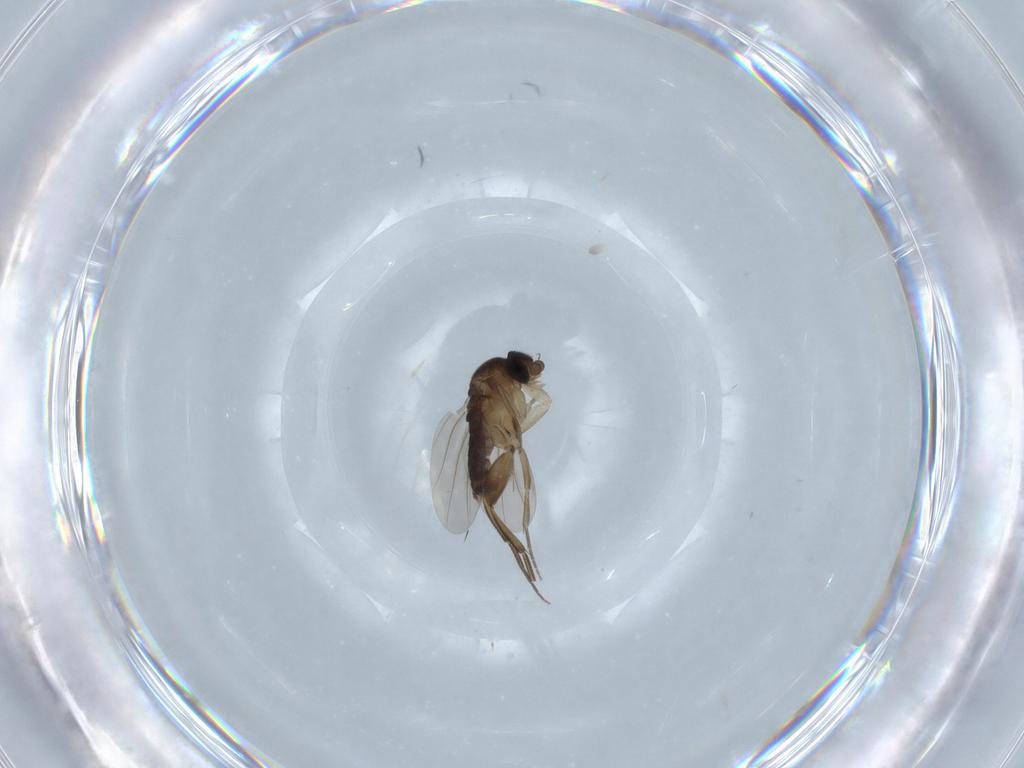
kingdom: Animalia
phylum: Arthropoda
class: Insecta
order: Diptera
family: Phoridae
